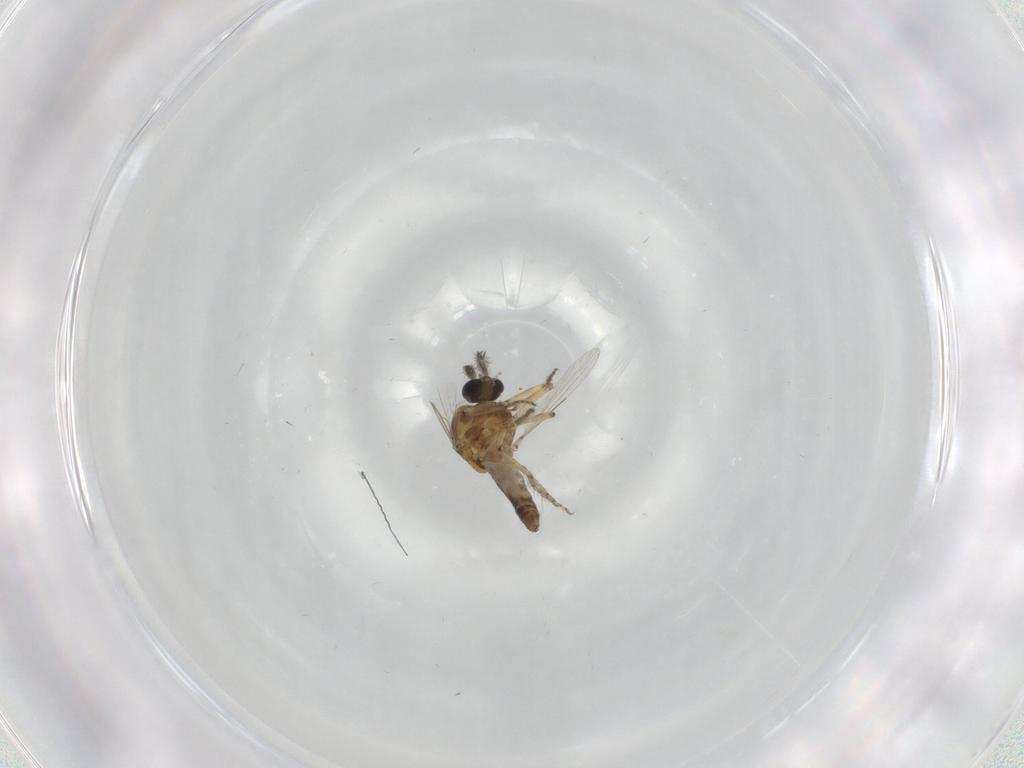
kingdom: Animalia
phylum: Arthropoda
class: Insecta
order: Diptera
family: Ceratopogonidae
